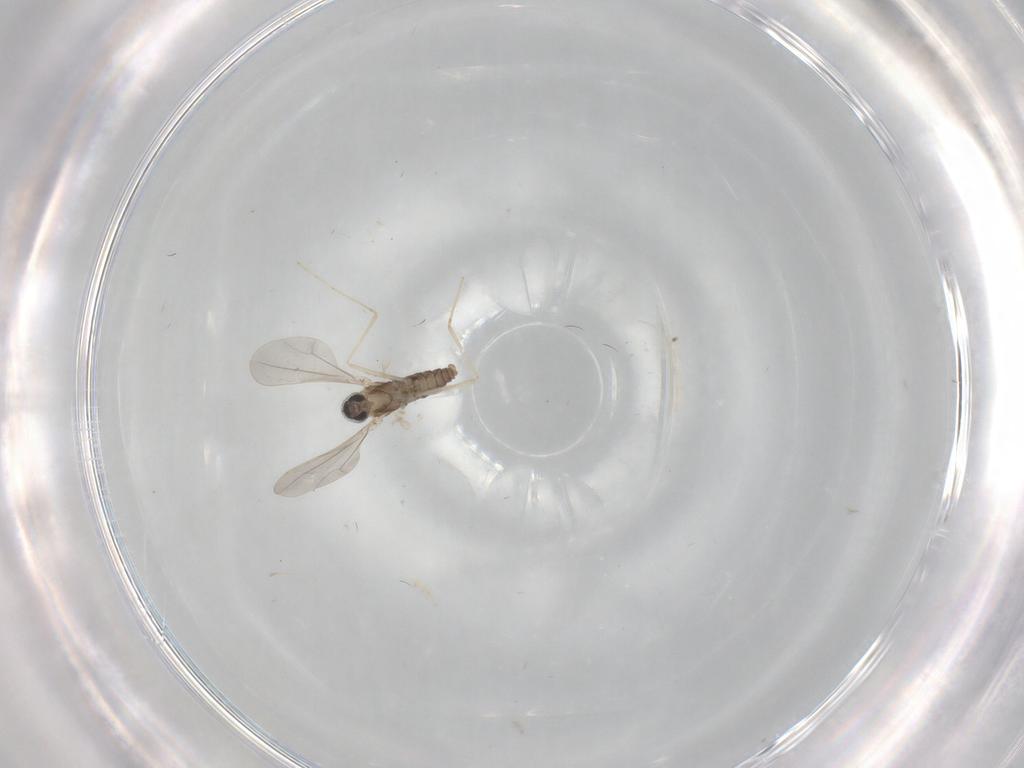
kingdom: Animalia
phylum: Arthropoda
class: Insecta
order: Diptera
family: Cecidomyiidae
